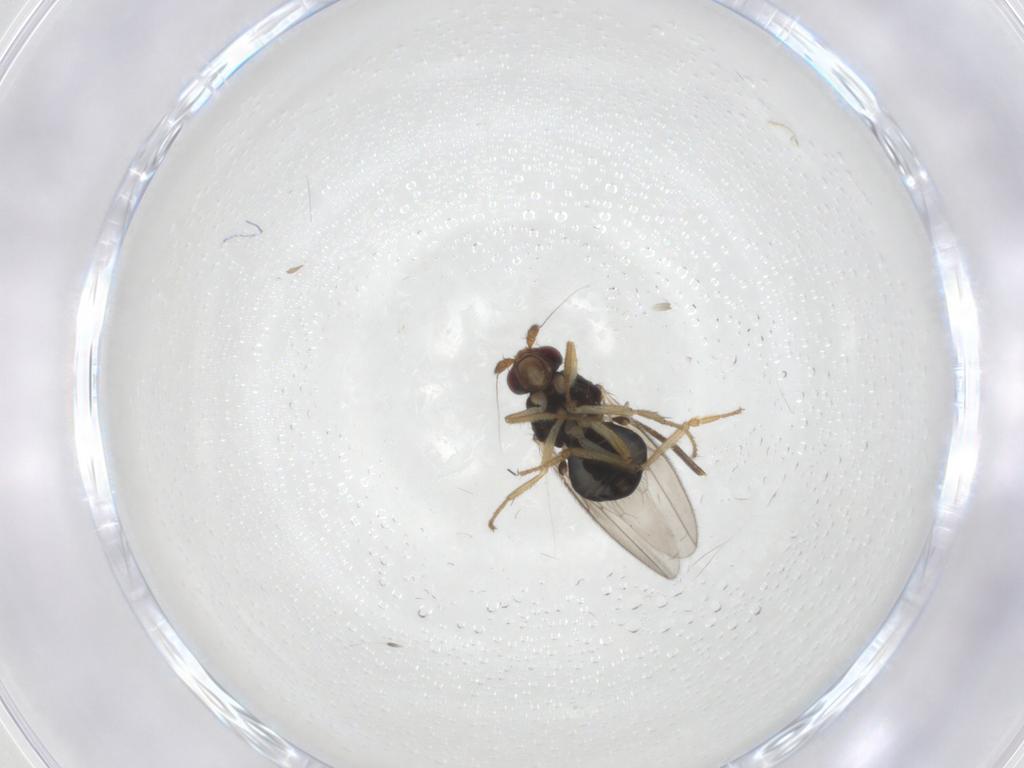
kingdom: Animalia
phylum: Arthropoda
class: Insecta
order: Diptera
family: Sphaeroceridae
